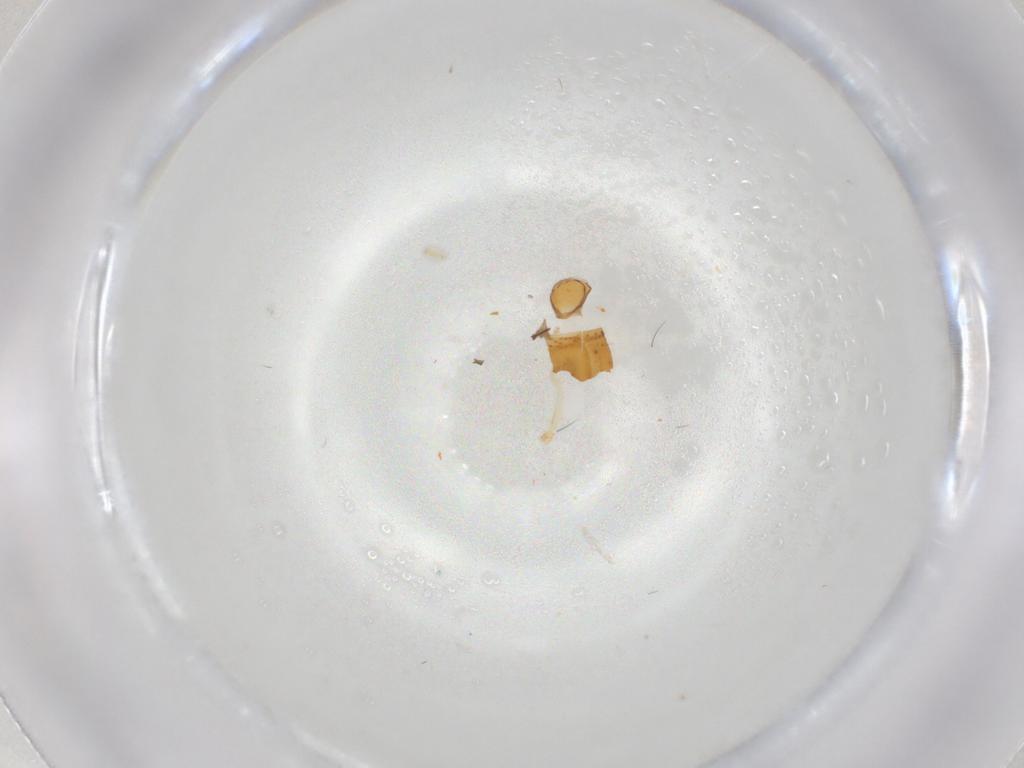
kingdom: Animalia
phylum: Arthropoda
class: Insecta
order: Diptera
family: Cecidomyiidae
